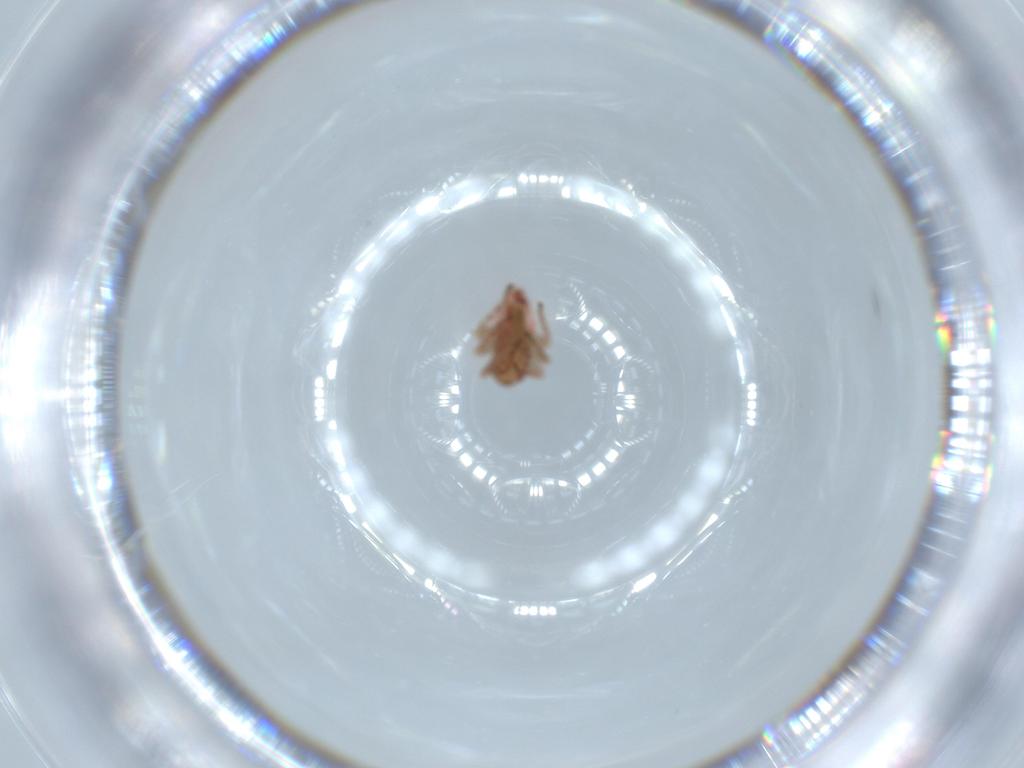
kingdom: Animalia
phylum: Arthropoda
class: Insecta
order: Hemiptera
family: Miridae
